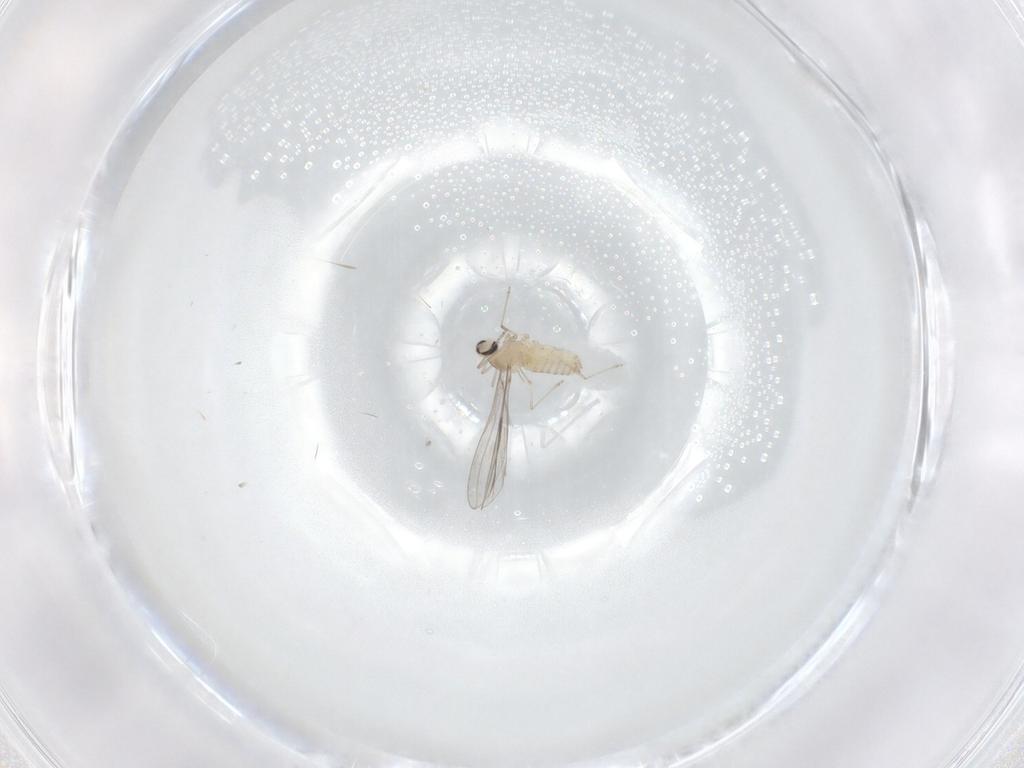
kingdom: Animalia
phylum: Arthropoda
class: Insecta
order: Diptera
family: Cecidomyiidae
